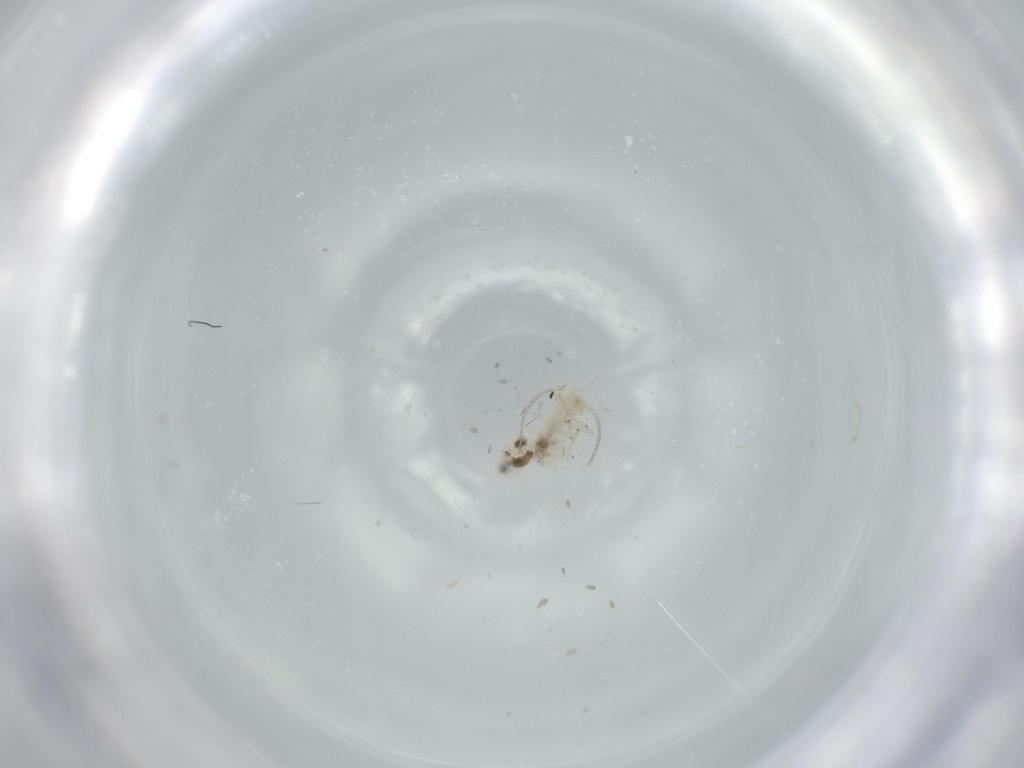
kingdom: Animalia
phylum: Arthropoda
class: Insecta
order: Psocodea
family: Caeciliusidae
